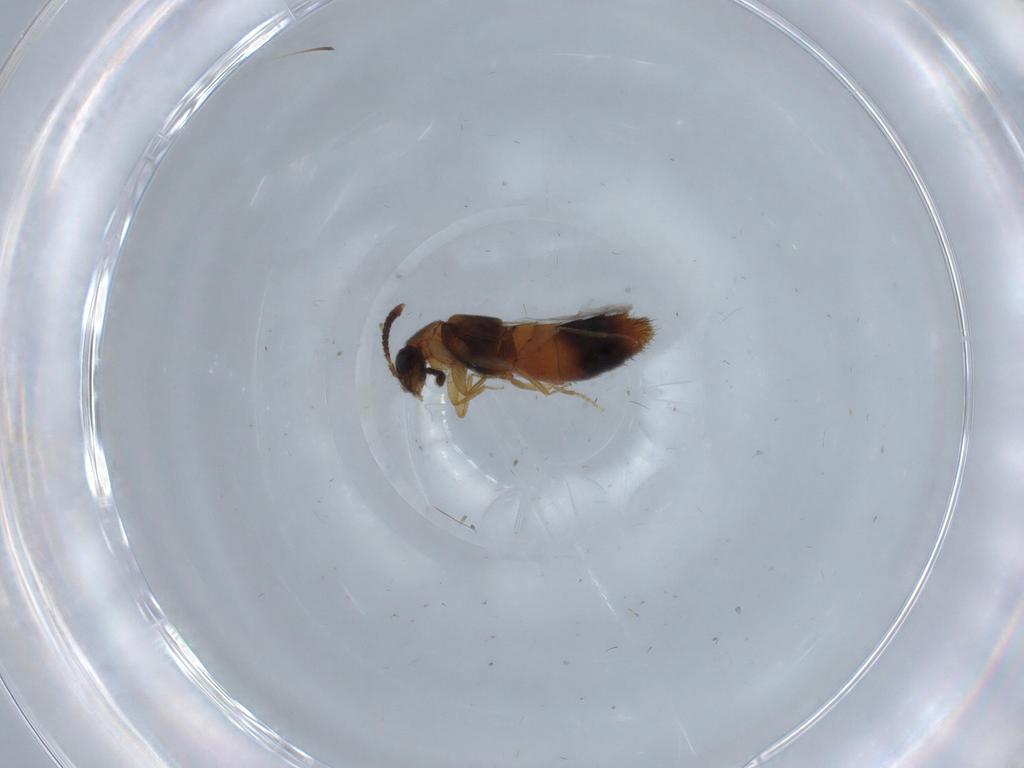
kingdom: Animalia
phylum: Arthropoda
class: Insecta
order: Coleoptera
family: Staphylinidae
